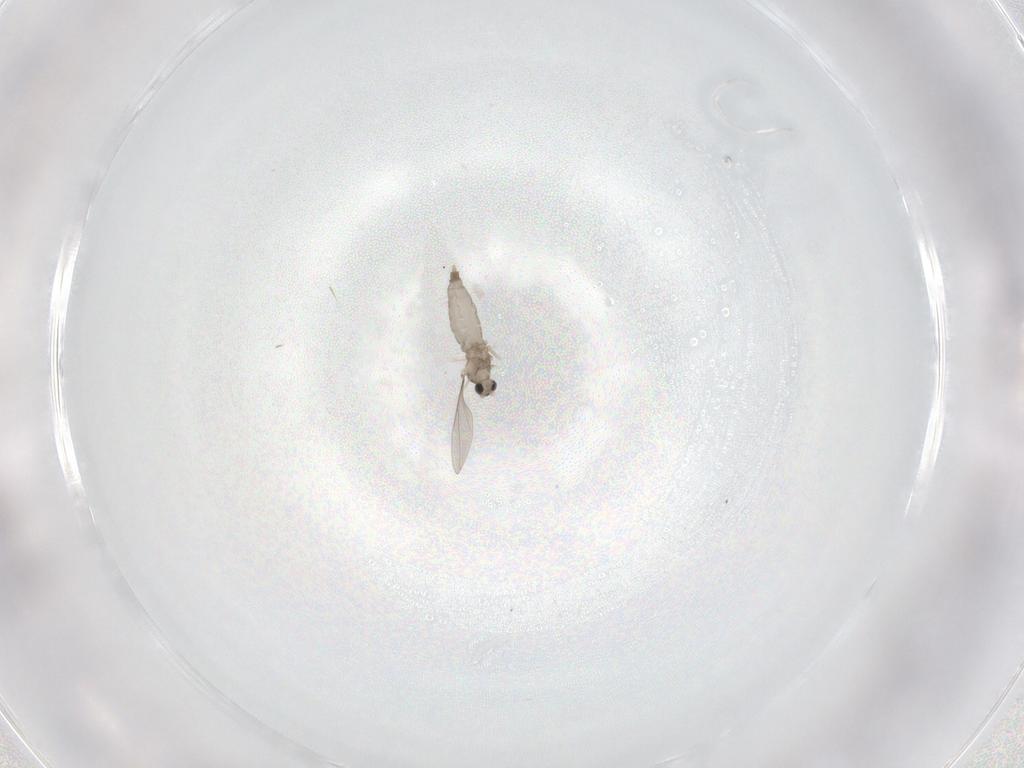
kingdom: Animalia
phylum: Arthropoda
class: Insecta
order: Diptera
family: Psychodidae
